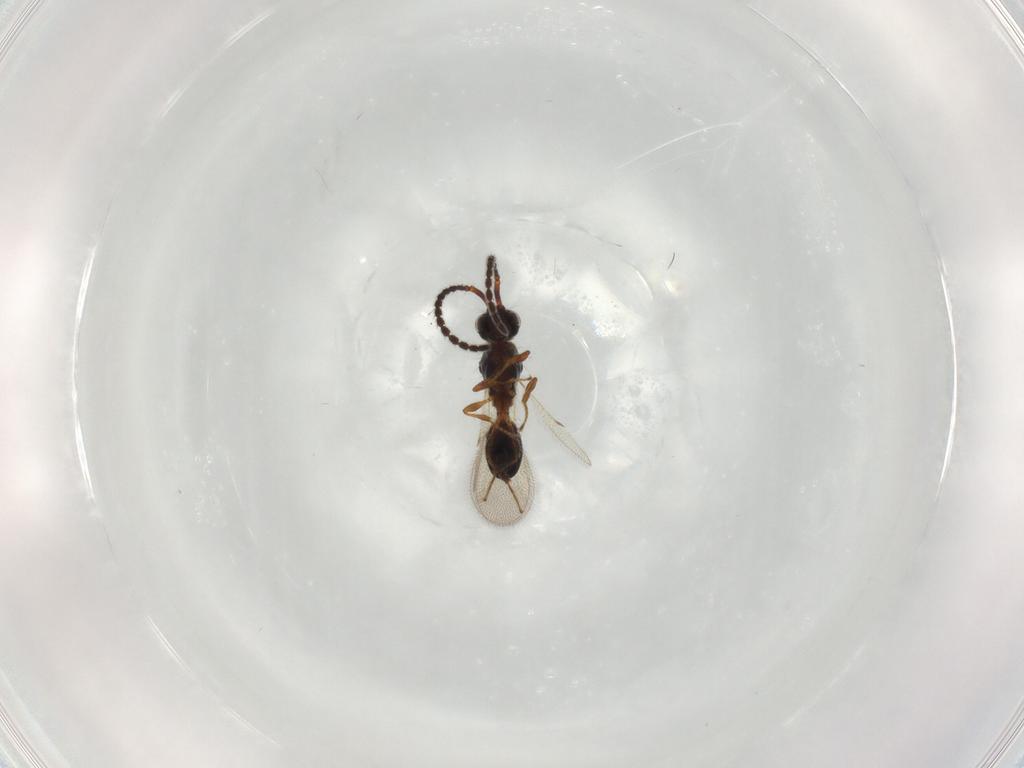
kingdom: Animalia
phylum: Arthropoda
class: Insecta
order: Hymenoptera
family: Diapriidae
